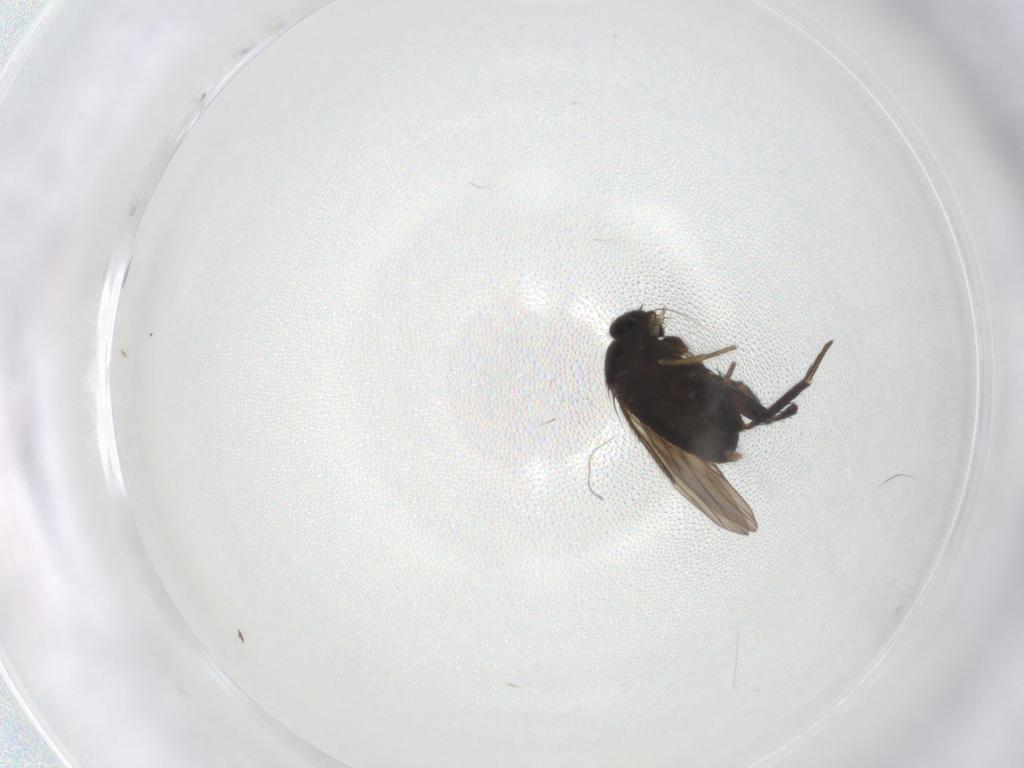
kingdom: Animalia
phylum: Arthropoda
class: Insecta
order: Diptera
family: Phoridae
